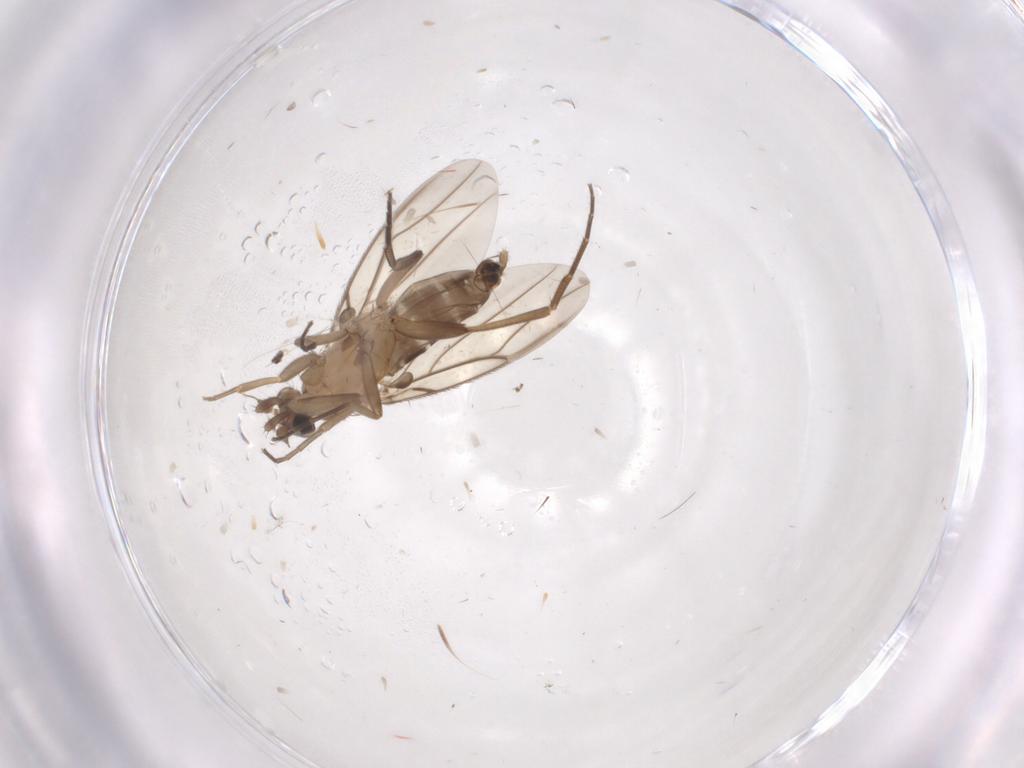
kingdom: Animalia
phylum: Arthropoda
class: Insecta
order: Diptera
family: Phoridae
